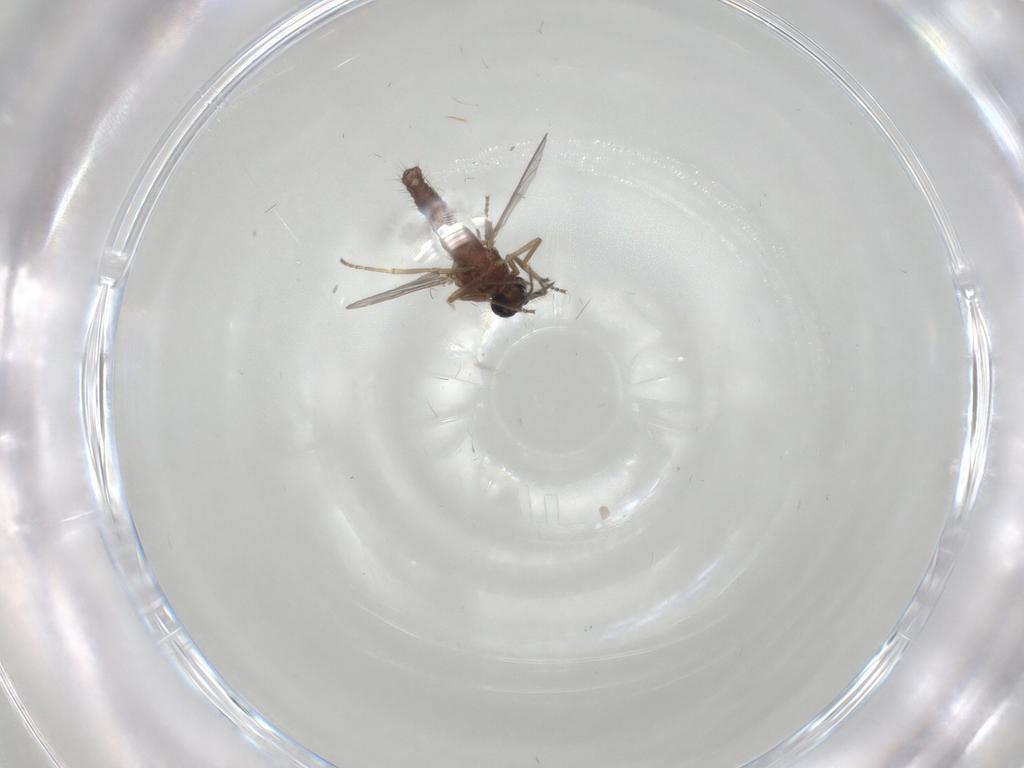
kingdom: Animalia
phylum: Arthropoda
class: Insecta
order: Diptera
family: Ceratopogonidae
